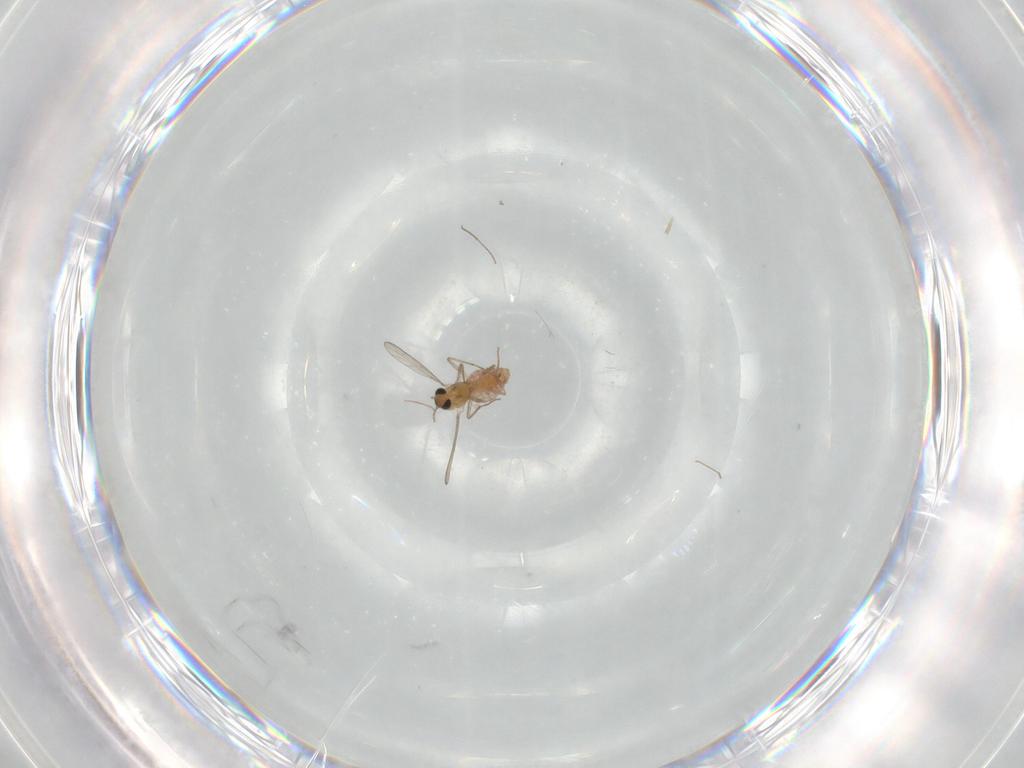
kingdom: Animalia
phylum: Arthropoda
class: Insecta
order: Diptera
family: Chironomidae
